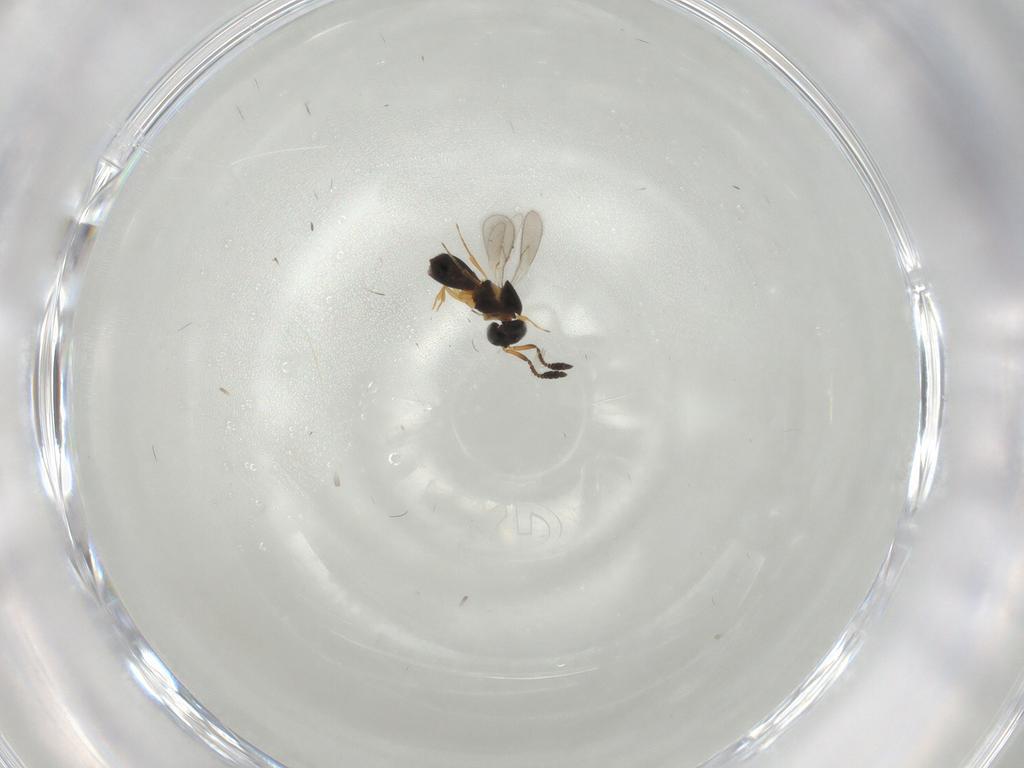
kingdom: Animalia
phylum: Arthropoda
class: Insecta
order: Hymenoptera
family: Scelionidae
